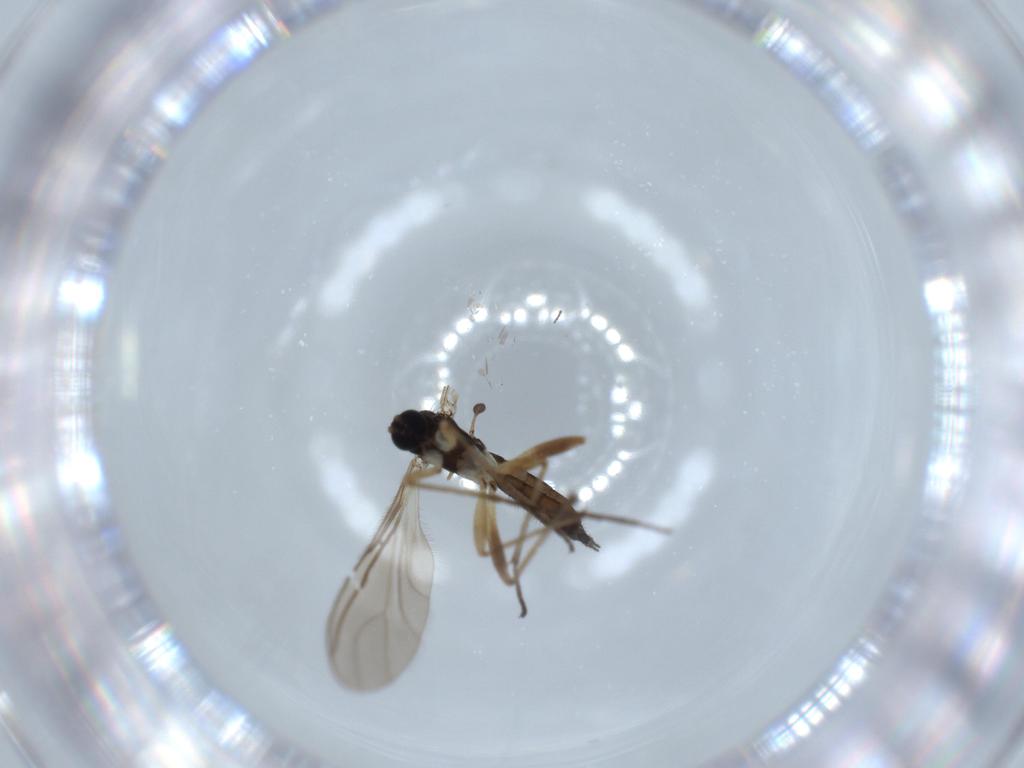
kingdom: Animalia
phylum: Arthropoda
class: Insecta
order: Diptera
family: Sciaridae
